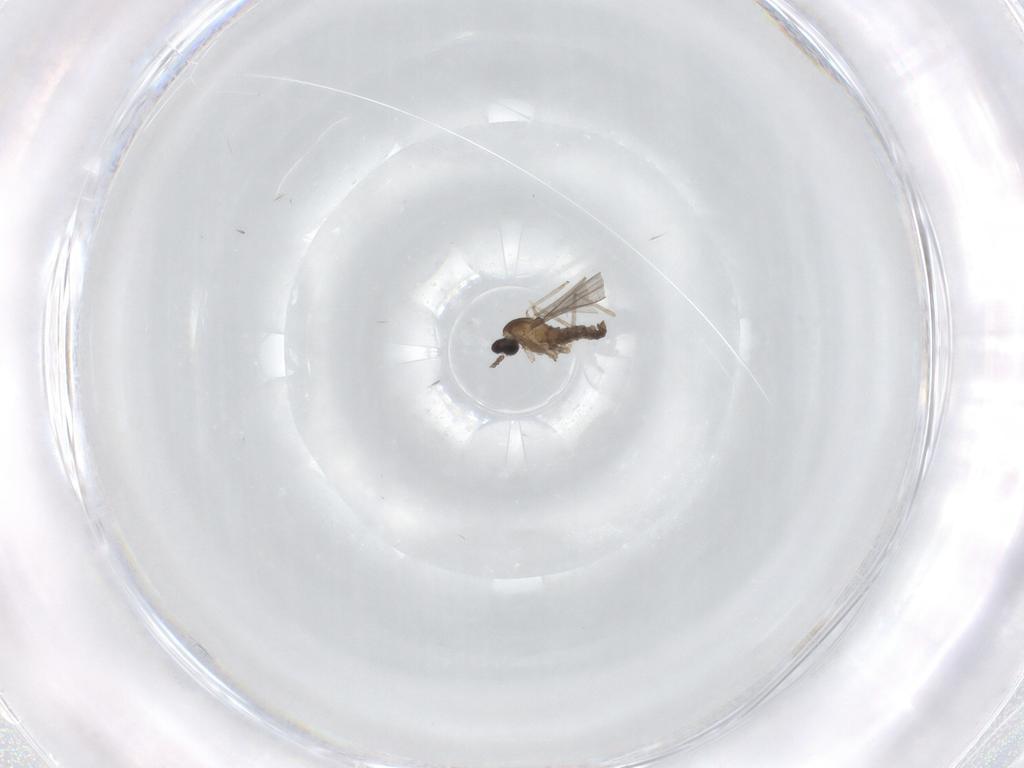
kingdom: Animalia
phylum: Arthropoda
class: Insecta
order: Diptera
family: Cecidomyiidae
